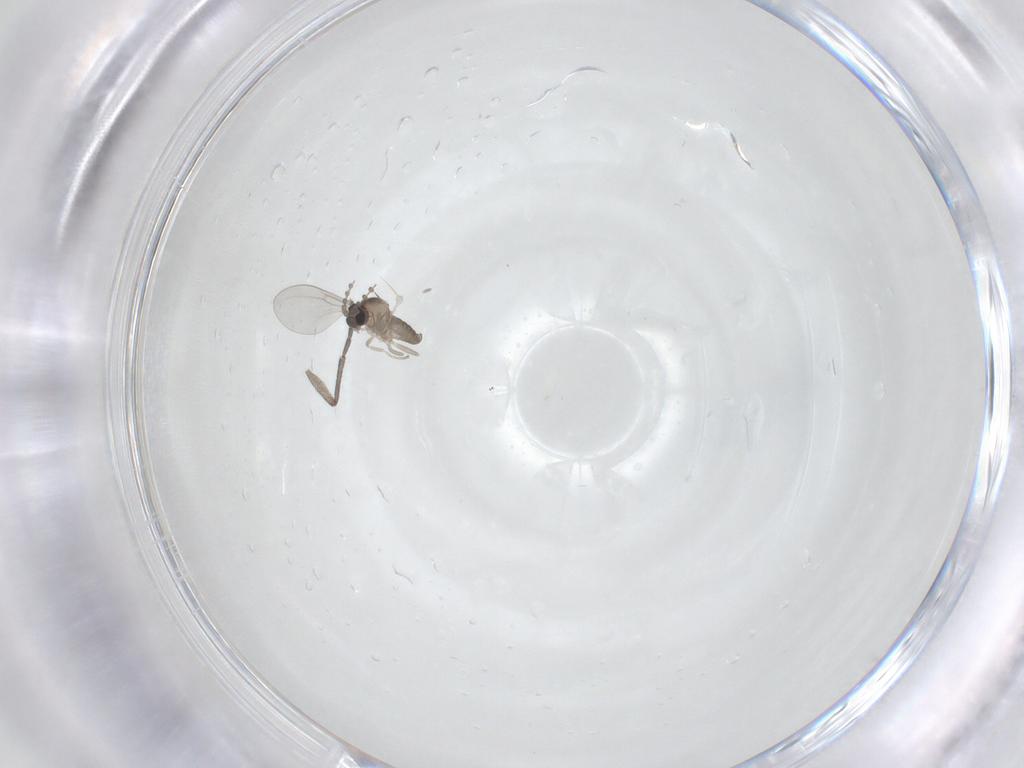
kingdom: Animalia
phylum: Arthropoda
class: Insecta
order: Diptera
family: Cecidomyiidae
